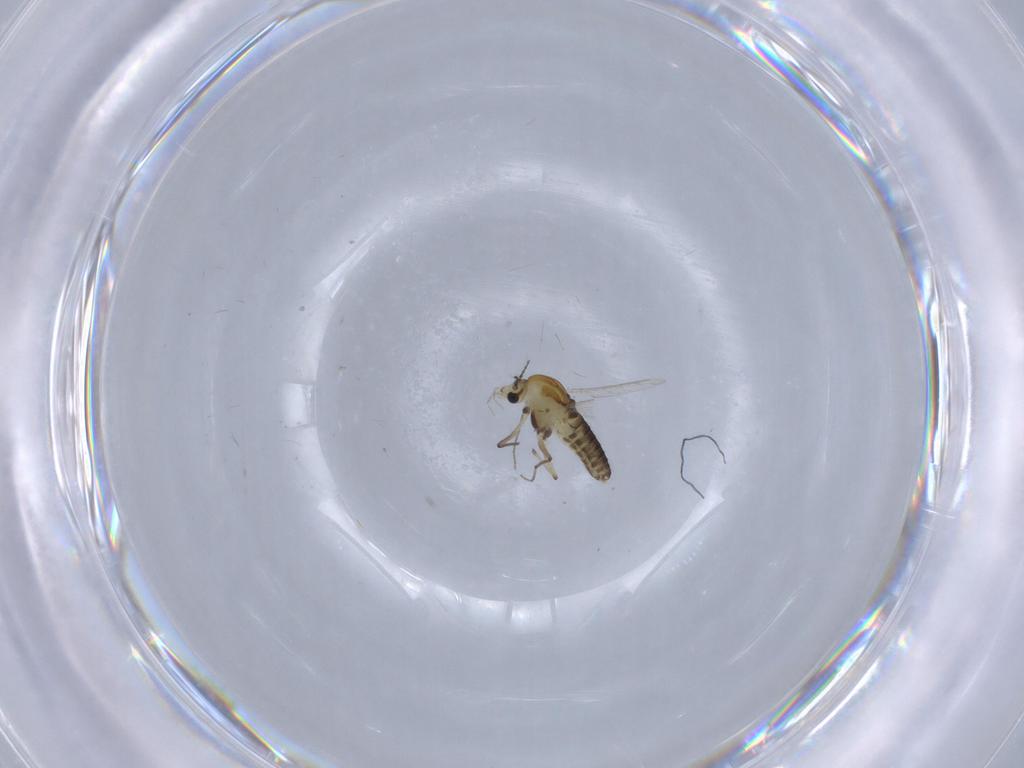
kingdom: Animalia
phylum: Arthropoda
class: Insecta
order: Diptera
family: Chironomidae
